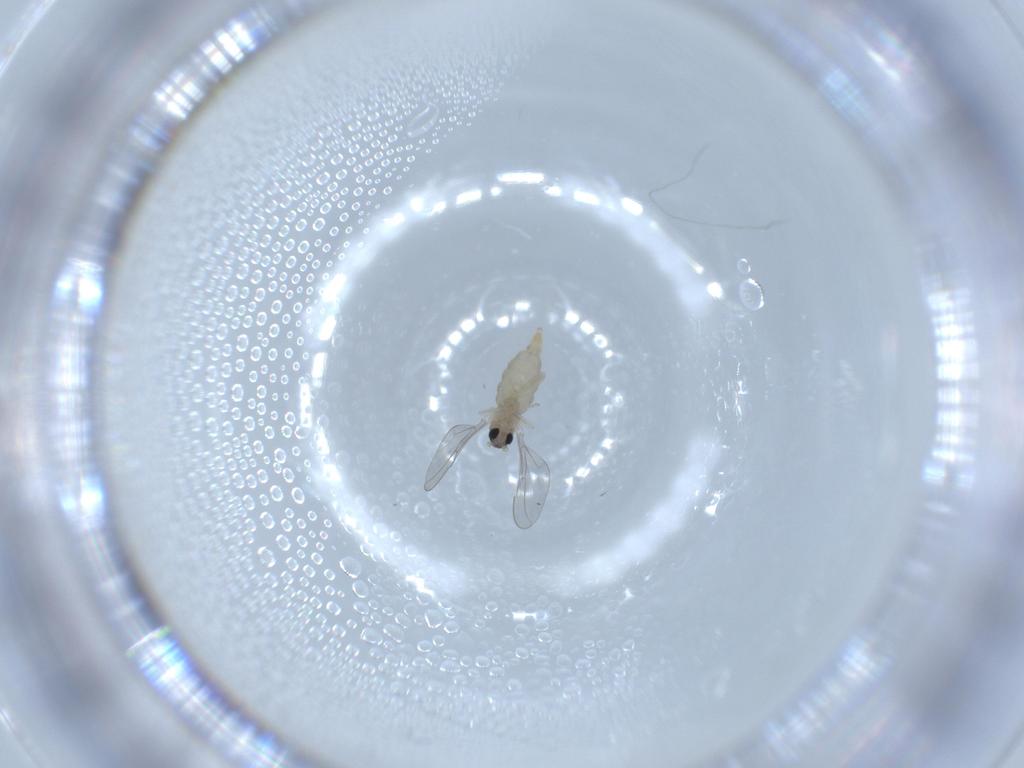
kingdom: Animalia
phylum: Arthropoda
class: Insecta
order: Diptera
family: Cecidomyiidae
